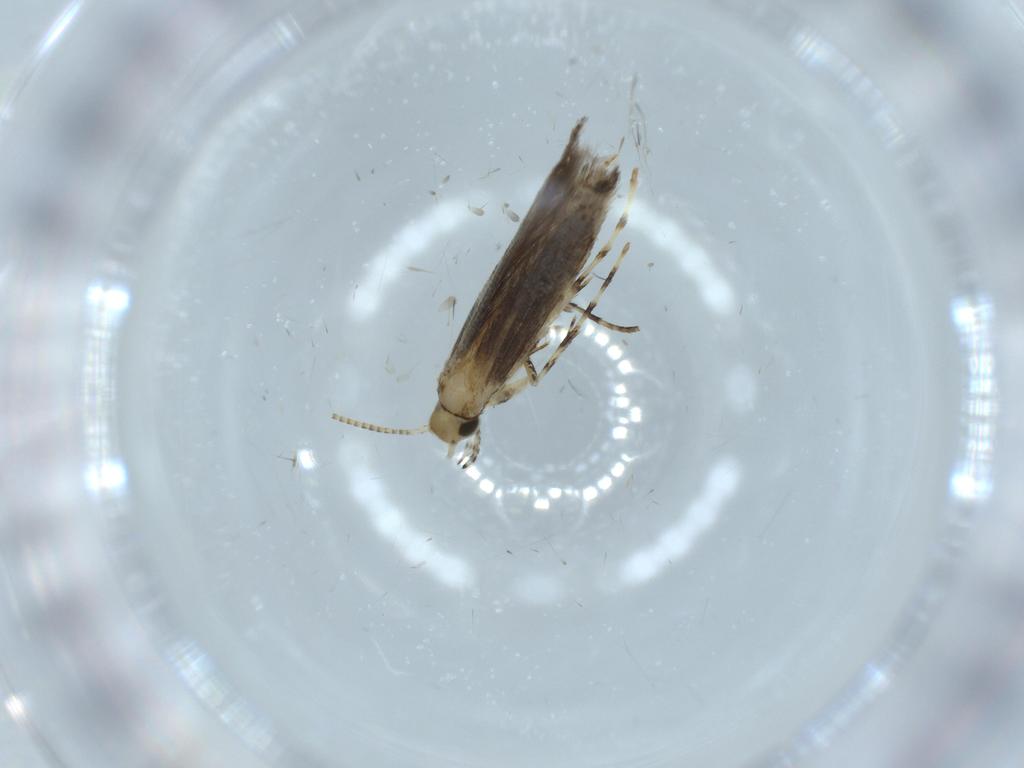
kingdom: Animalia
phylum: Arthropoda
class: Insecta
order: Lepidoptera
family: Gracillariidae
